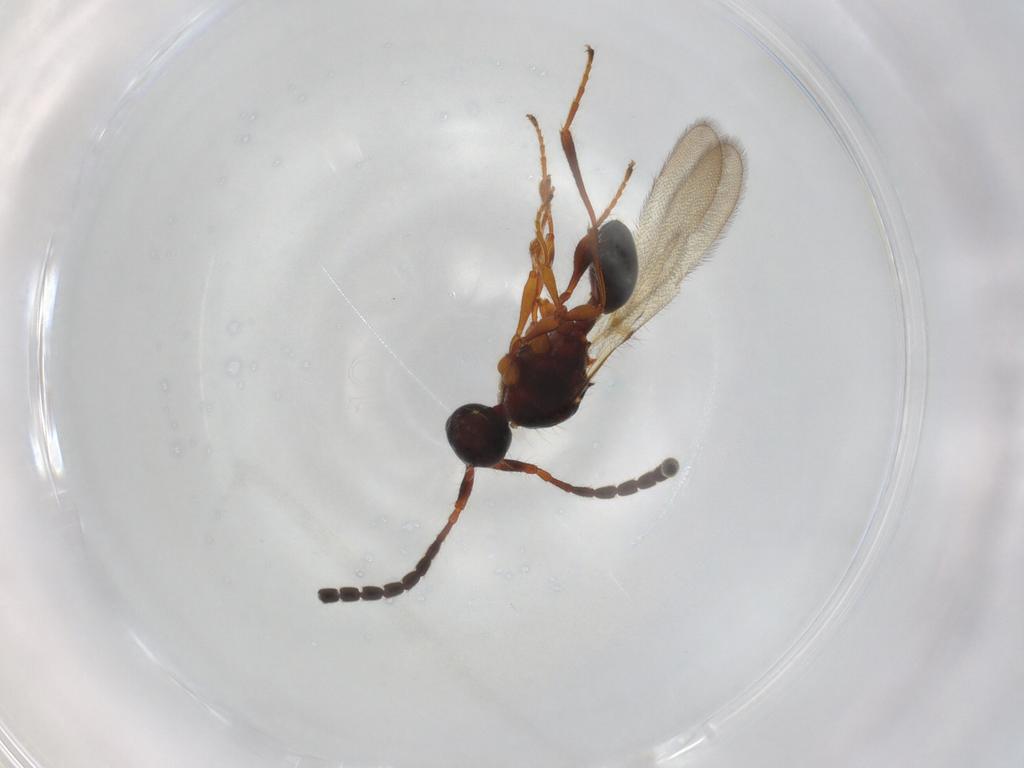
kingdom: Animalia
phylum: Arthropoda
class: Insecta
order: Hymenoptera
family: Diapriidae
